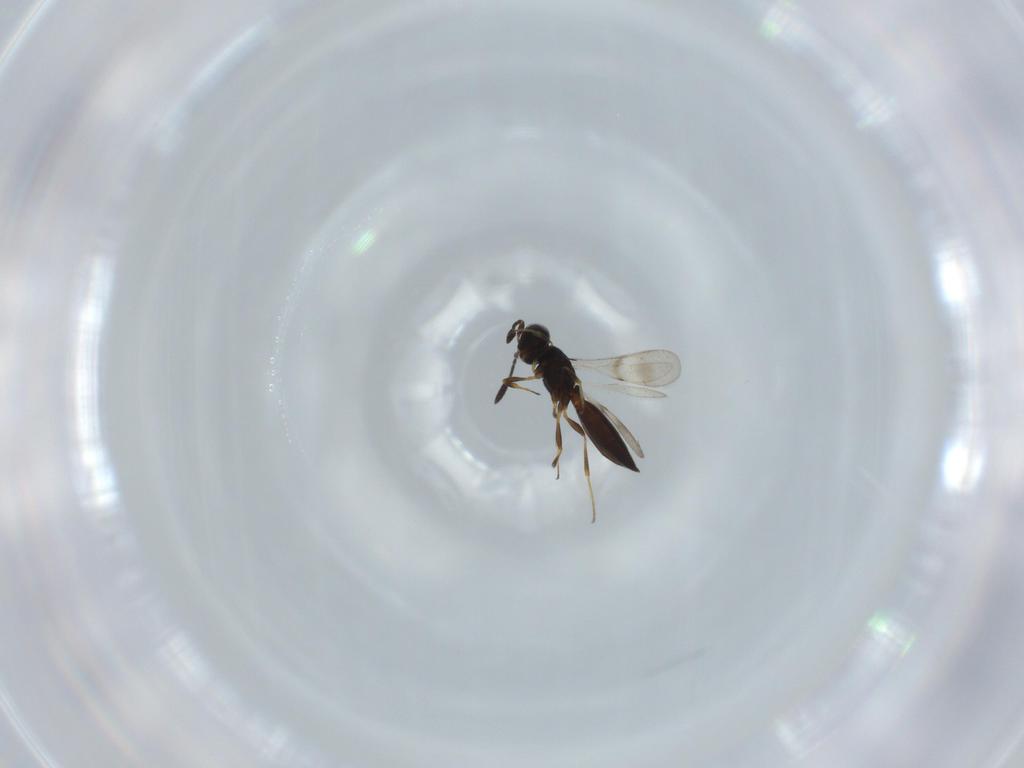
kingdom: Animalia
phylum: Arthropoda
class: Insecta
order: Hymenoptera
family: Scelionidae
